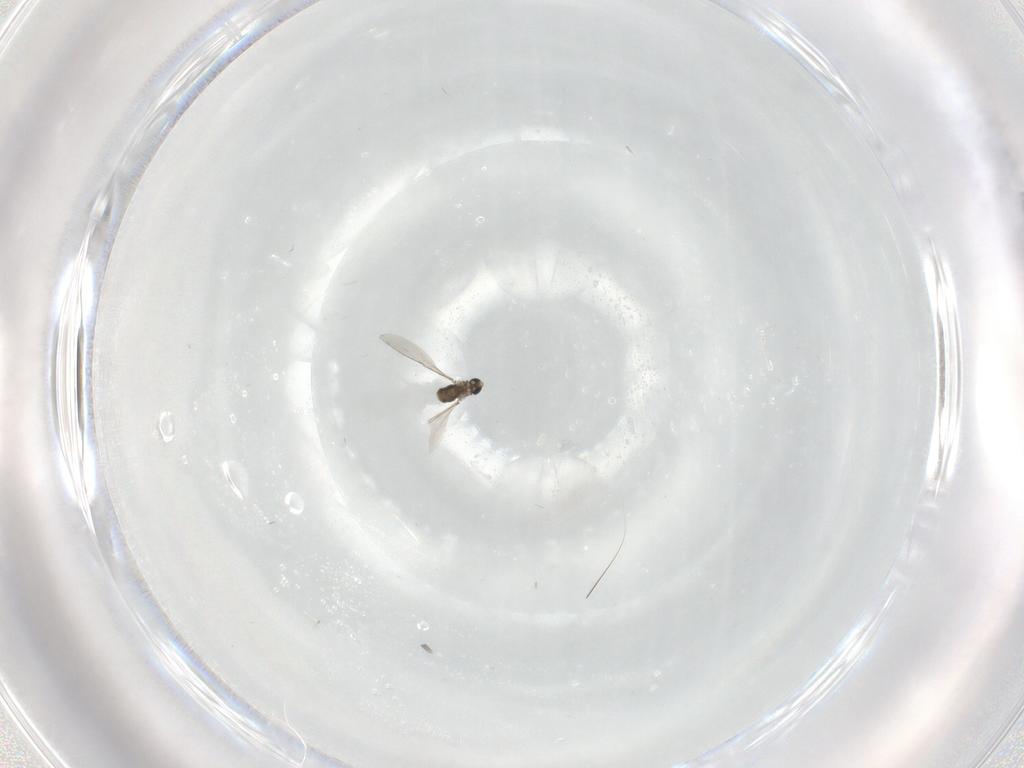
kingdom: Animalia
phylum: Arthropoda
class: Insecta
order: Diptera
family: Cecidomyiidae
